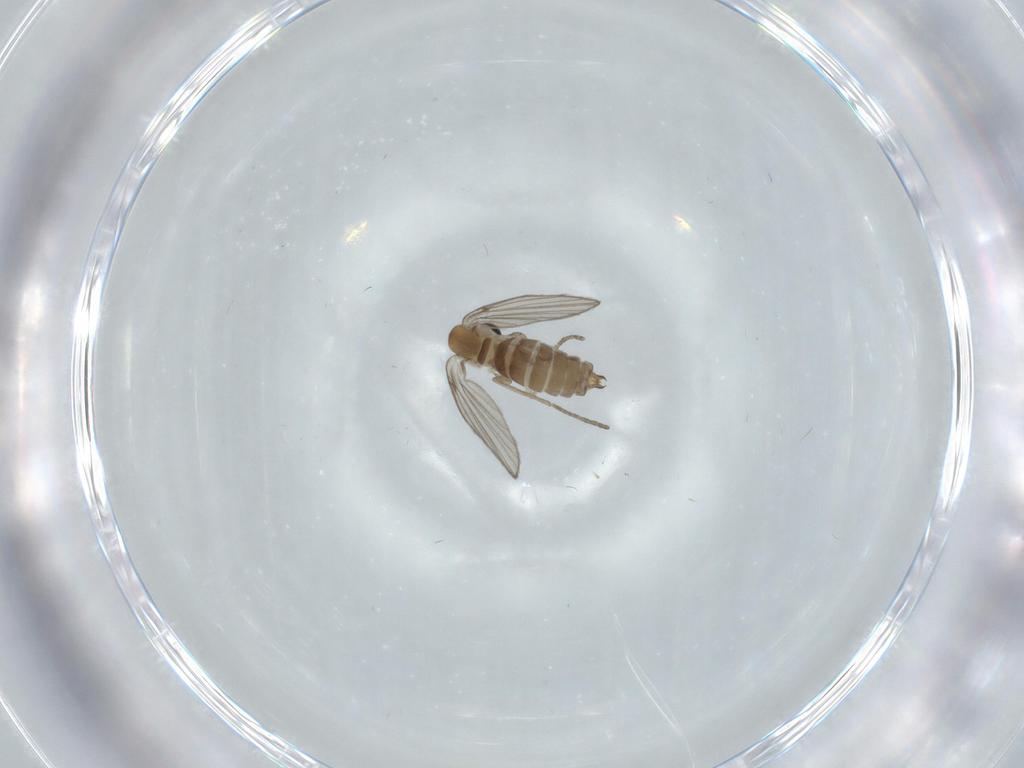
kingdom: Animalia
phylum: Arthropoda
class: Insecta
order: Diptera
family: Psychodidae
